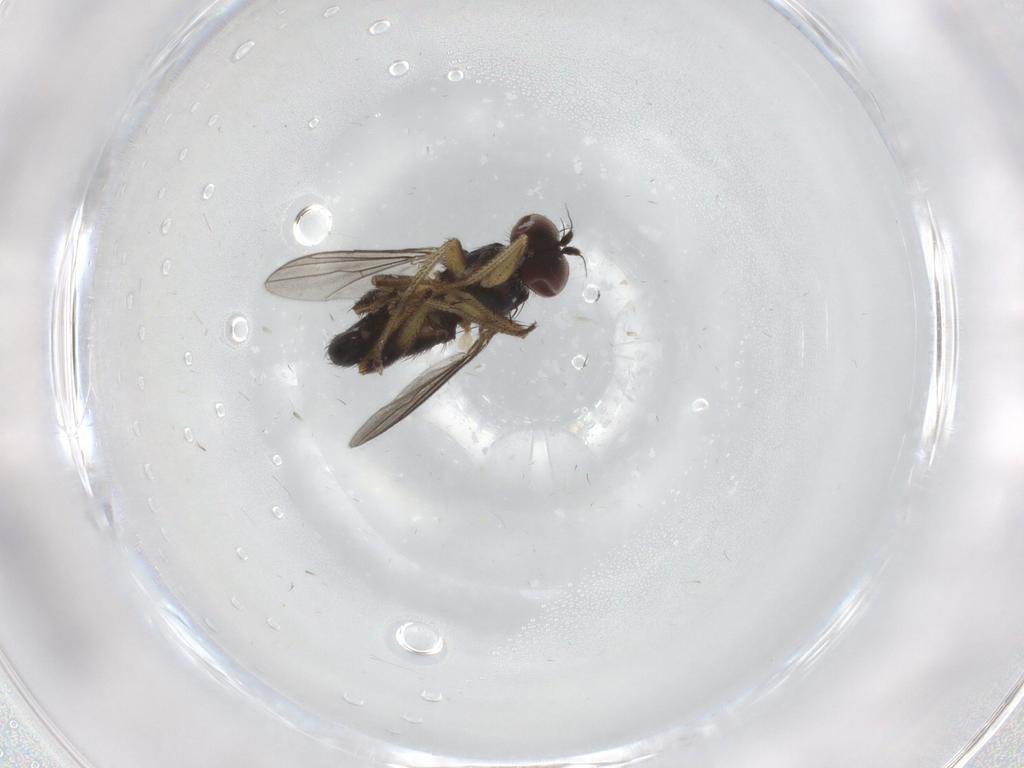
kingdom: Animalia
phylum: Arthropoda
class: Insecta
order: Diptera
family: Dolichopodidae
